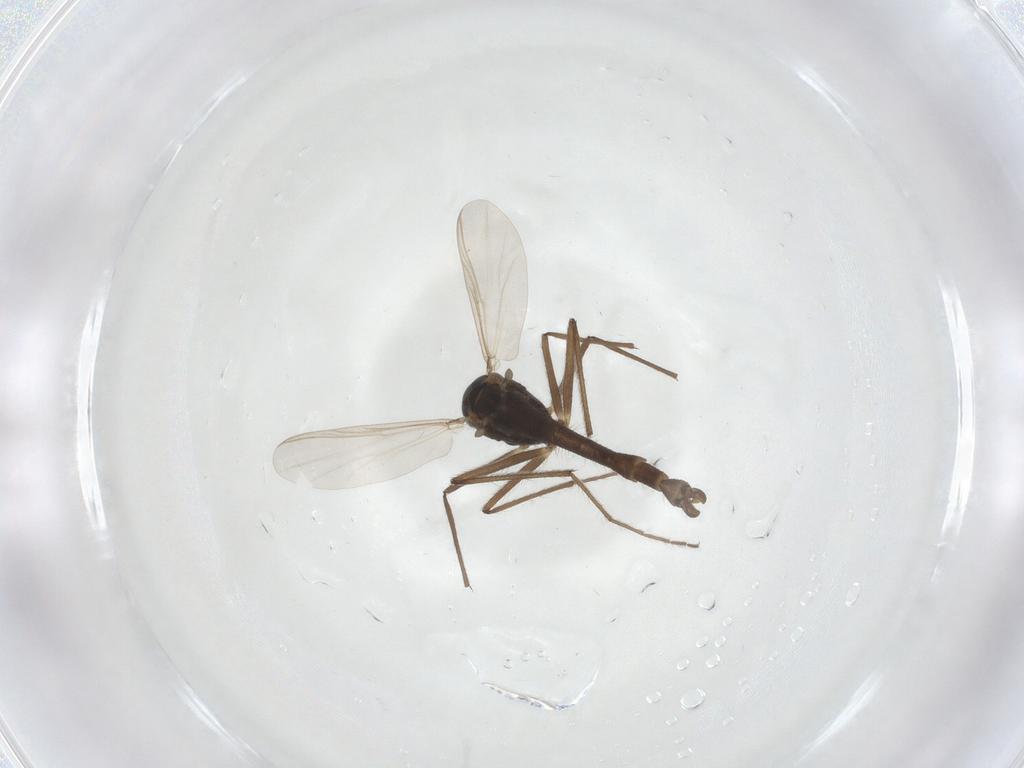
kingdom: Animalia
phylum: Arthropoda
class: Insecta
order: Diptera
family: Chironomidae
